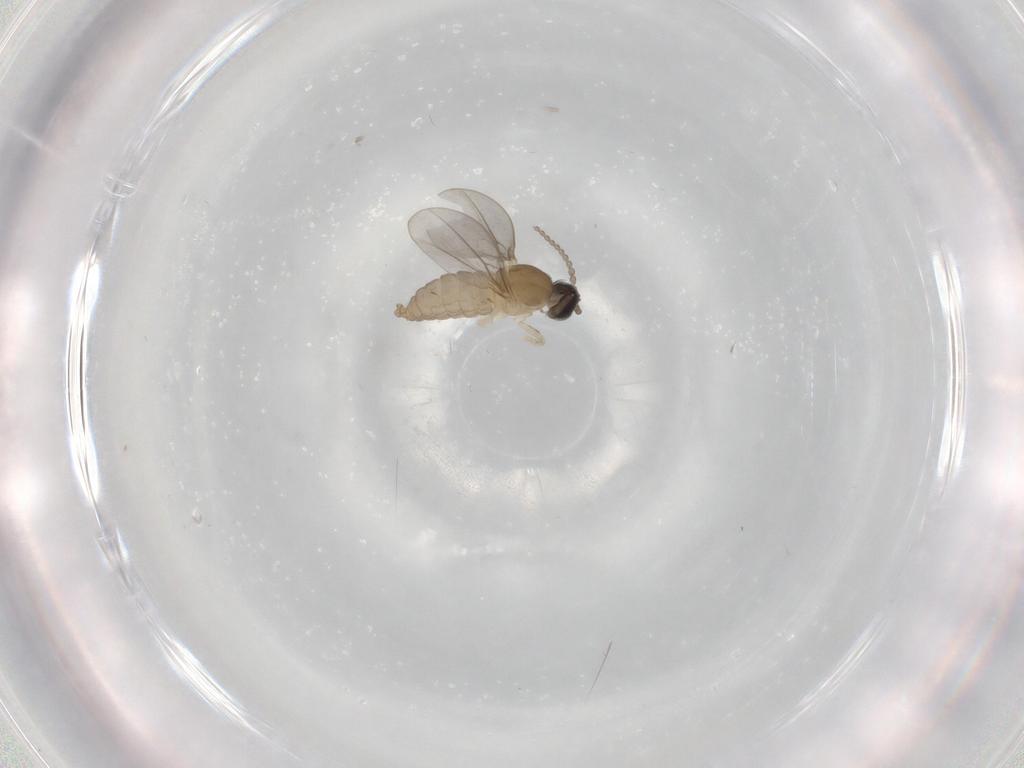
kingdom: Animalia
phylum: Arthropoda
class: Insecta
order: Diptera
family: Cecidomyiidae
